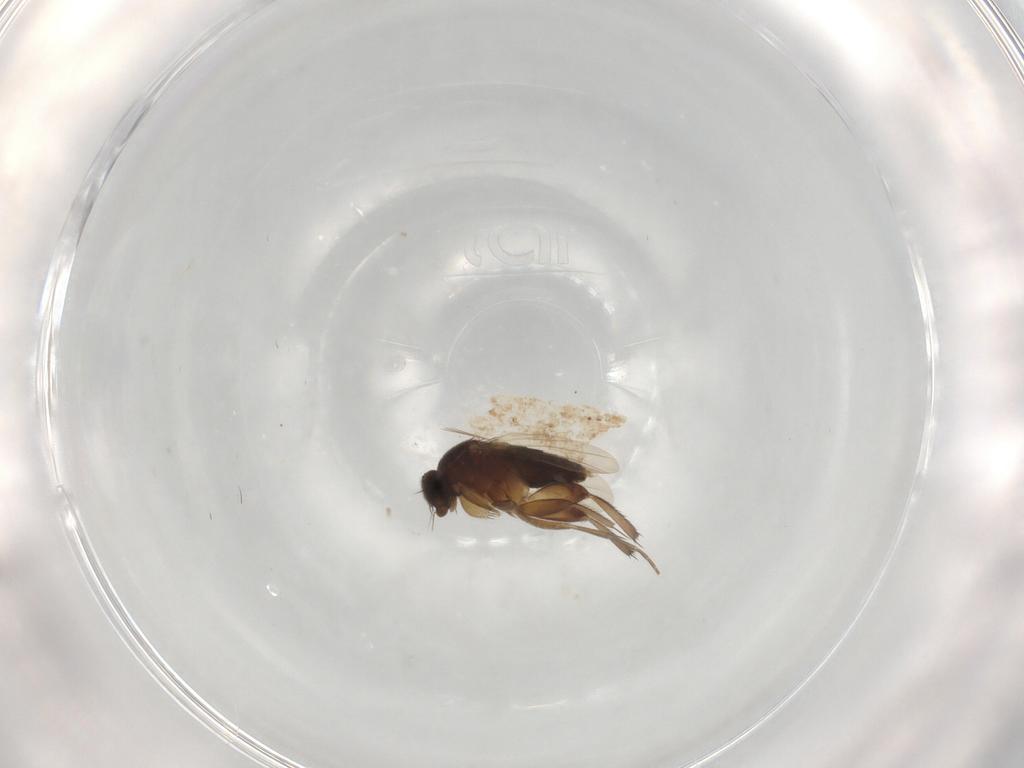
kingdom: Animalia
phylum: Arthropoda
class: Insecta
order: Diptera
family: Phoridae
